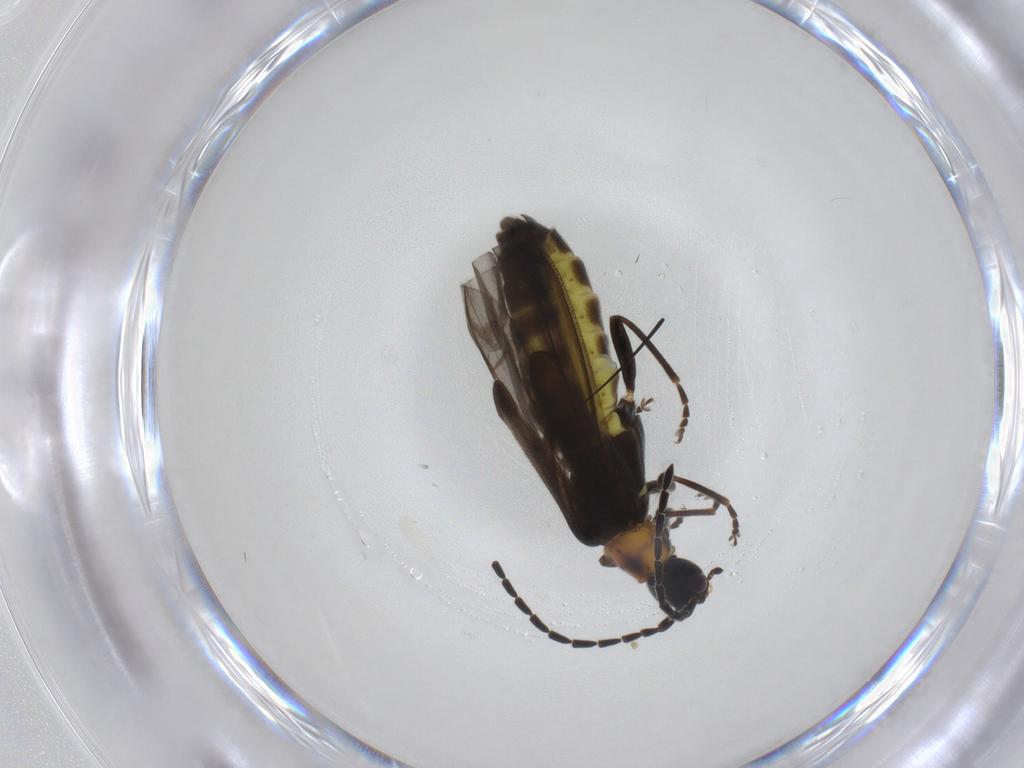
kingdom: Animalia
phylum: Arthropoda
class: Insecta
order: Coleoptera
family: Cantharidae
